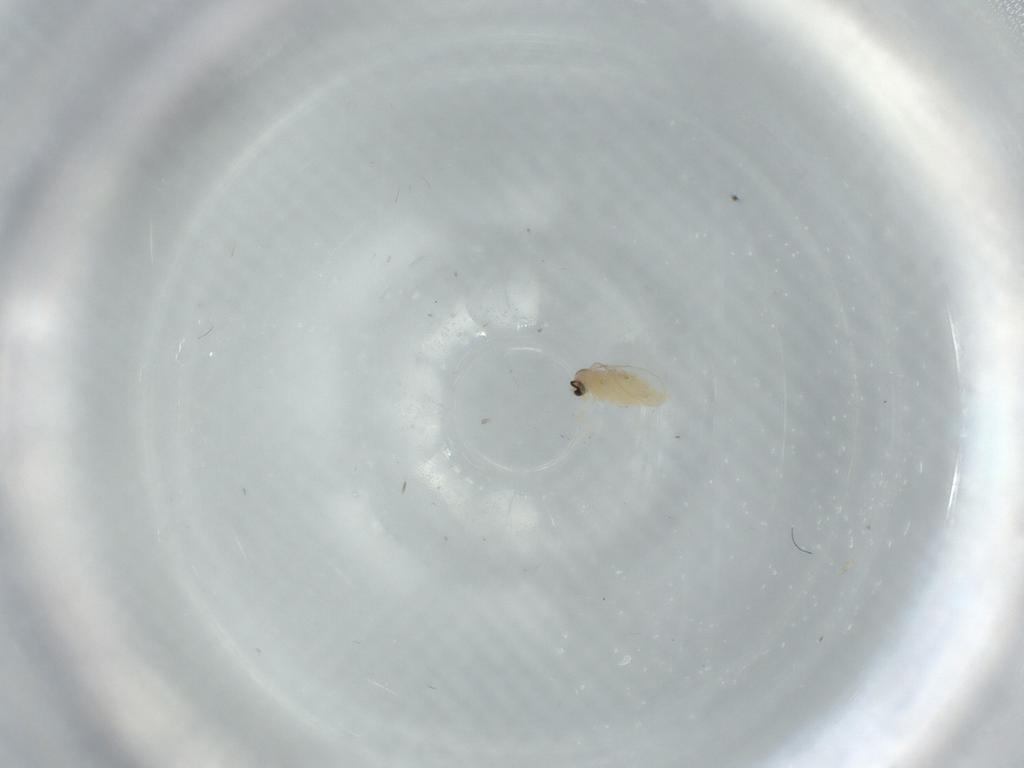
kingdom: Animalia
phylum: Arthropoda
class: Insecta
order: Diptera
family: Cecidomyiidae
